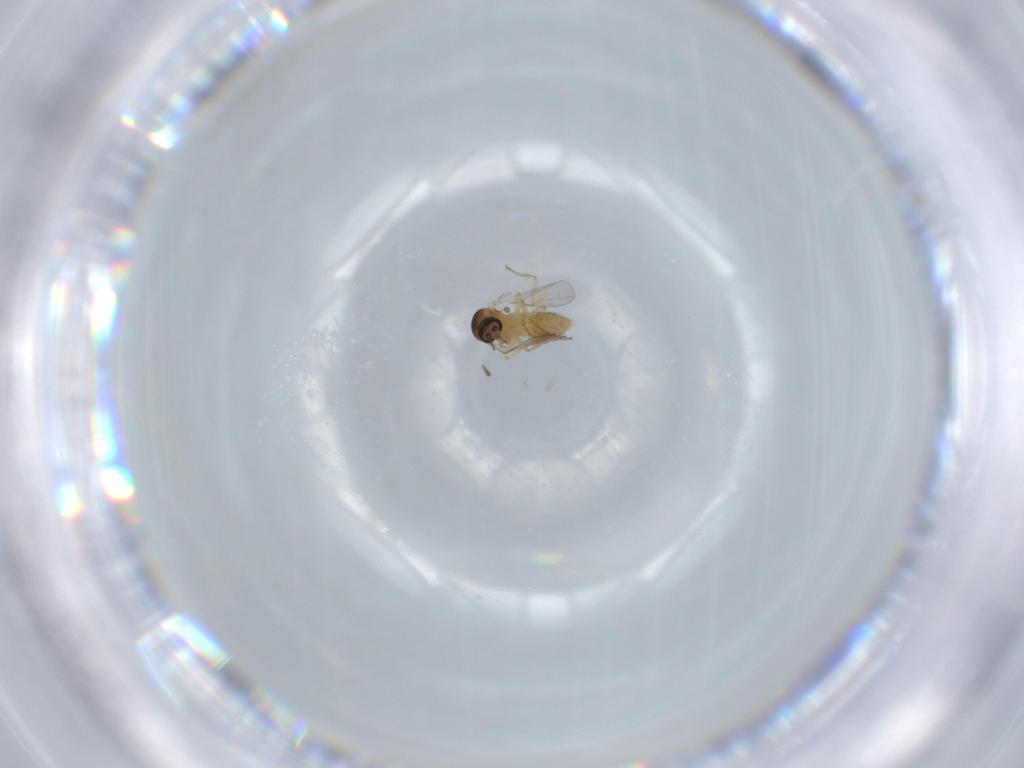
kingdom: Animalia
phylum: Arthropoda
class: Insecta
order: Diptera
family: Ceratopogonidae
